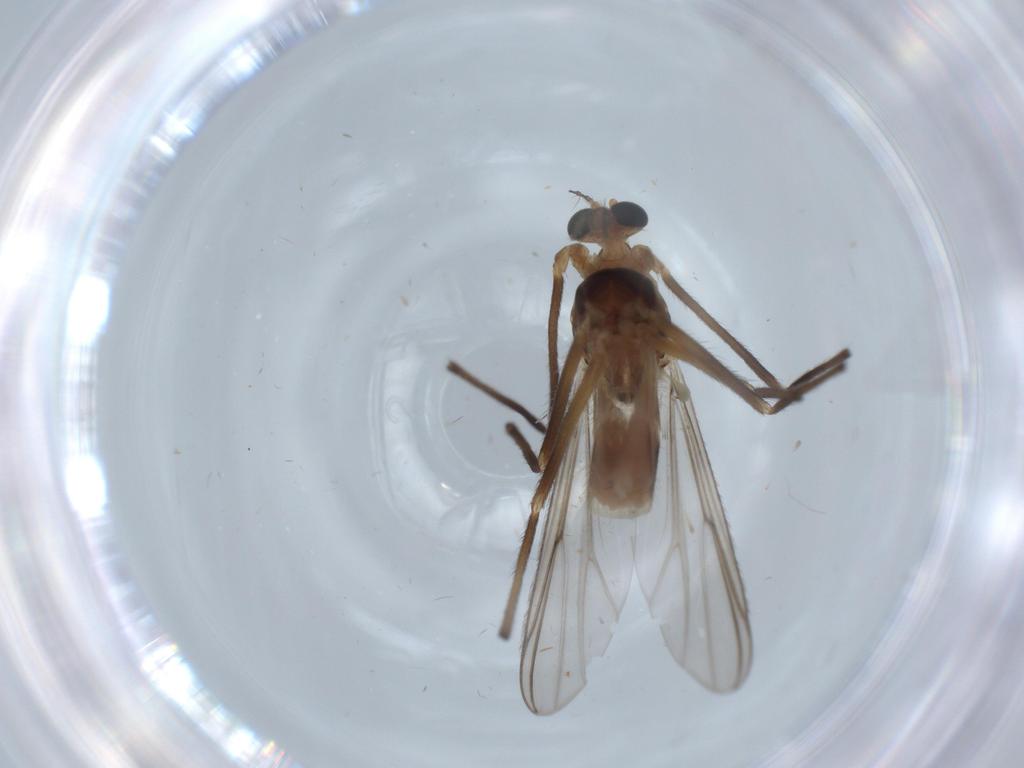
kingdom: Animalia
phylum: Arthropoda
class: Insecta
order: Diptera
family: Chironomidae
